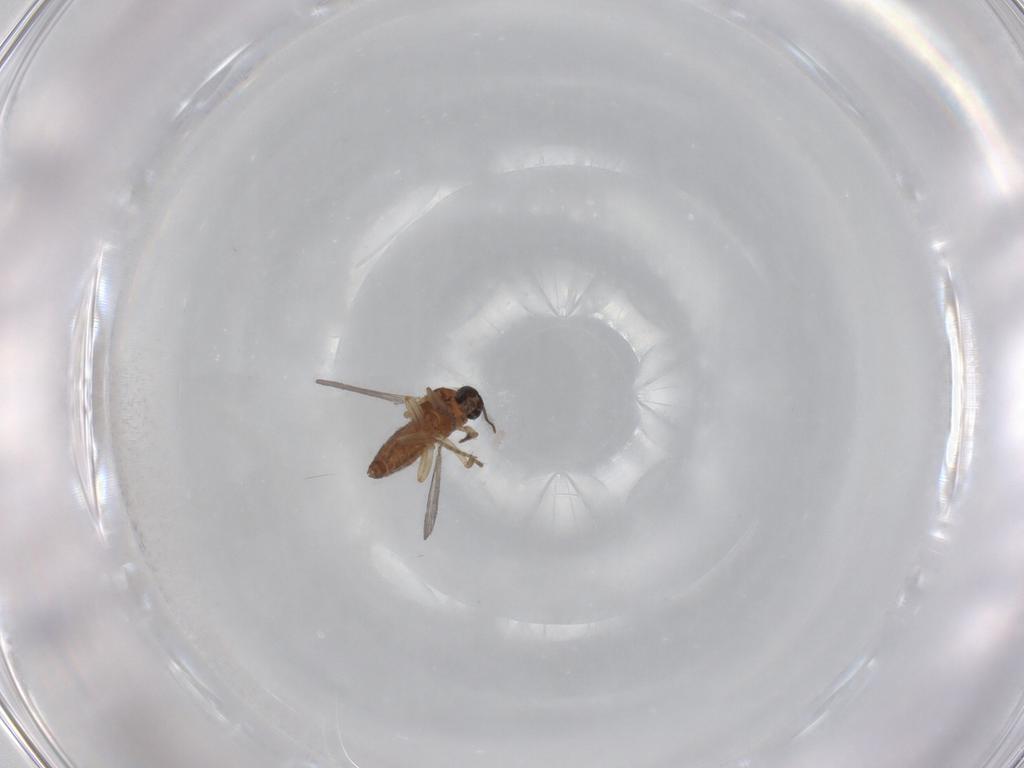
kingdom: Animalia
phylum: Arthropoda
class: Insecta
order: Diptera
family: Ceratopogonidae
